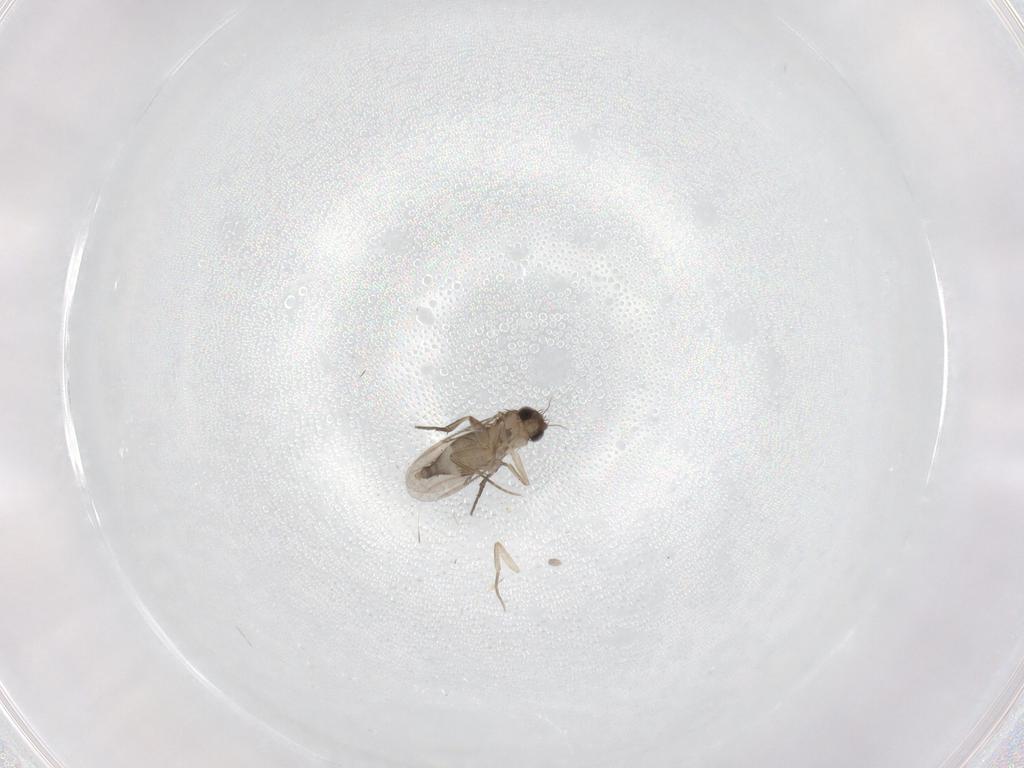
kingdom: Animalia
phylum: Arthropoda
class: Insecta
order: Diptera
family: Phoridae
